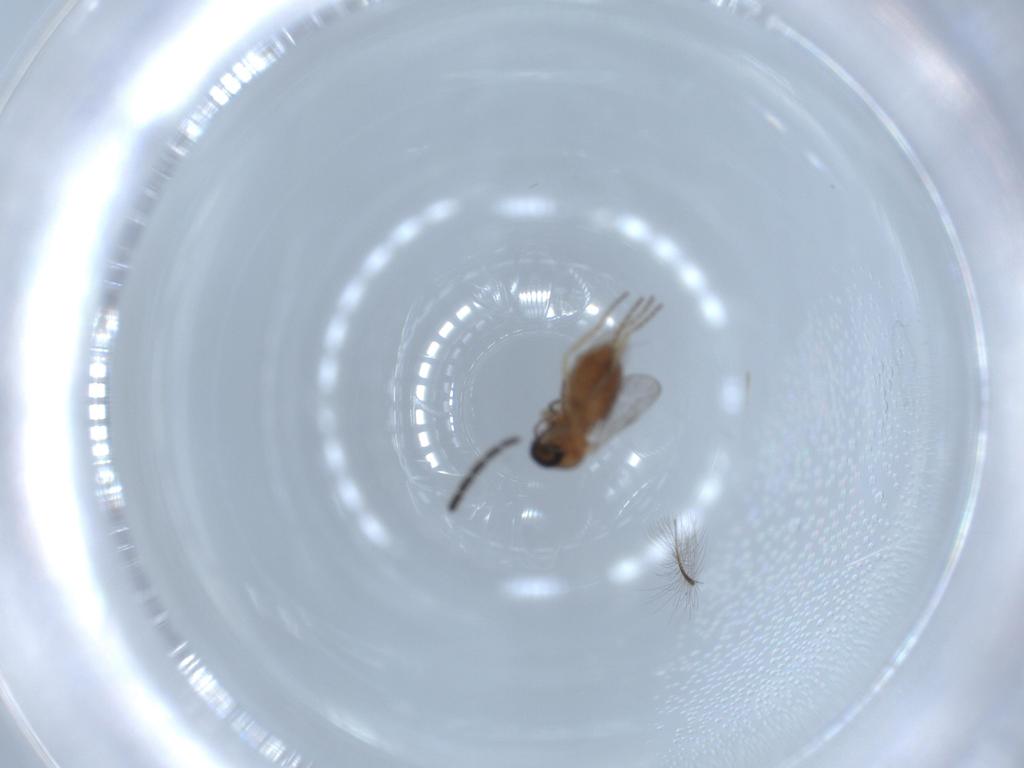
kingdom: Animalia
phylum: Arthropoda
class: Insecta
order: Diptera
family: Ceratopogonidae
